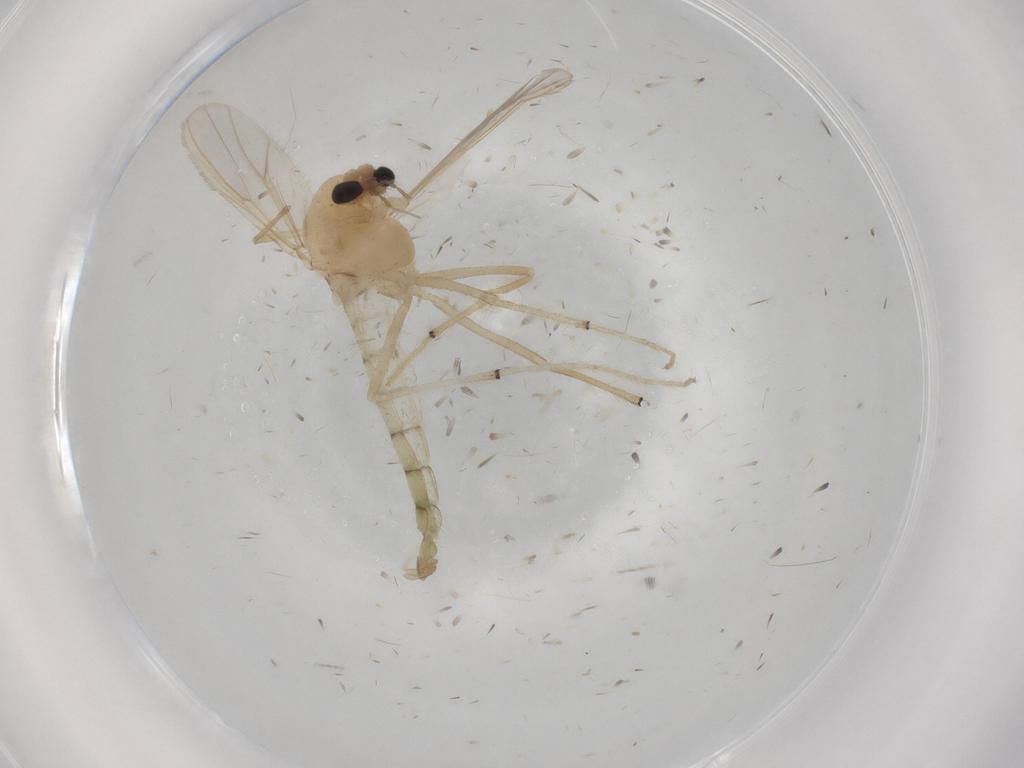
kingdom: Animalia
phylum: Arthropoda
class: Insecta
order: Diptera
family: Chironomidae
